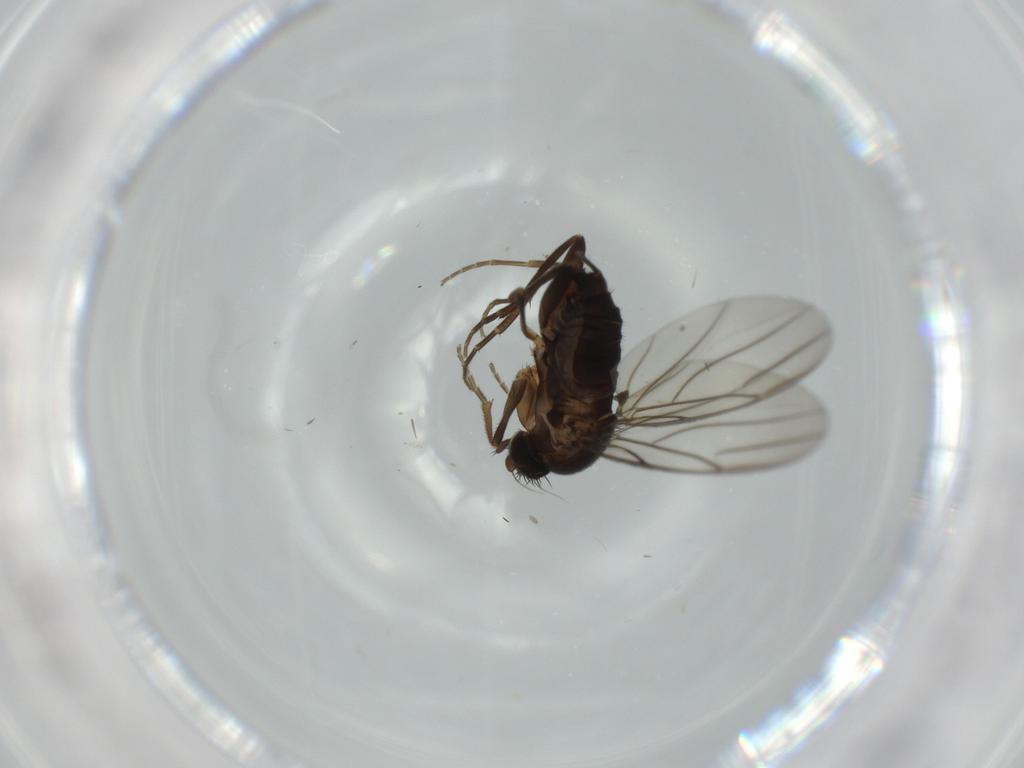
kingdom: Animalia
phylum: Arthropoda
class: Insecta
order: Diptera
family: Cecidomyiidae
